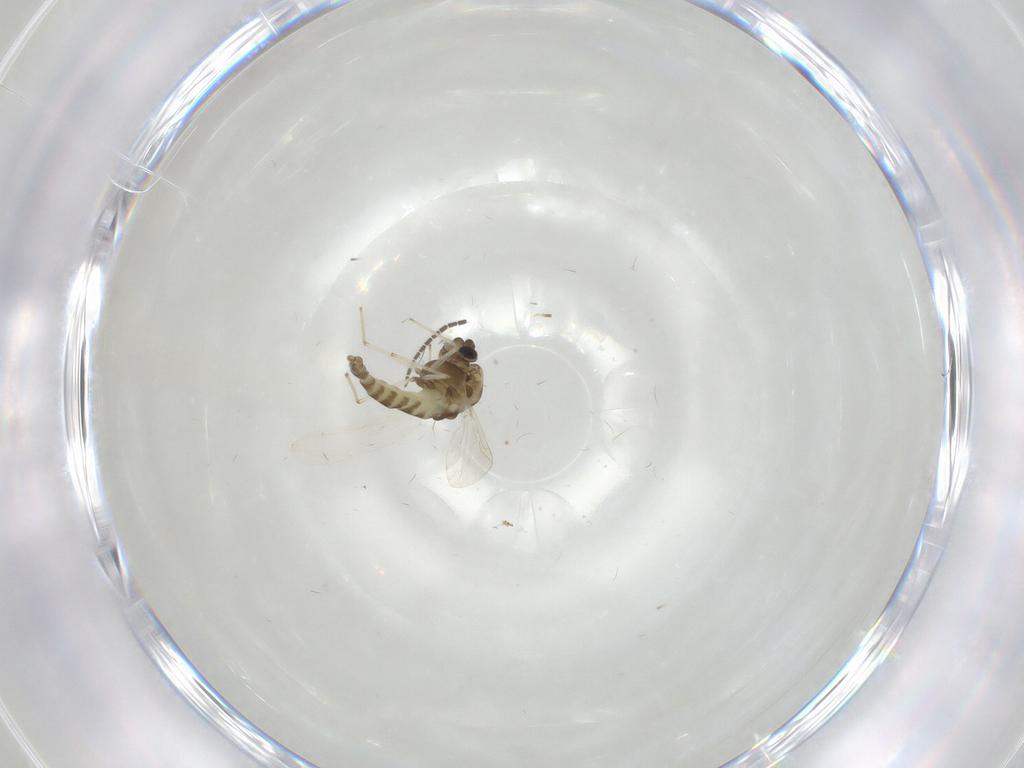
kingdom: Animalia
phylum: Arthropoda
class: Insecta
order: Diptera
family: Chironomidae
